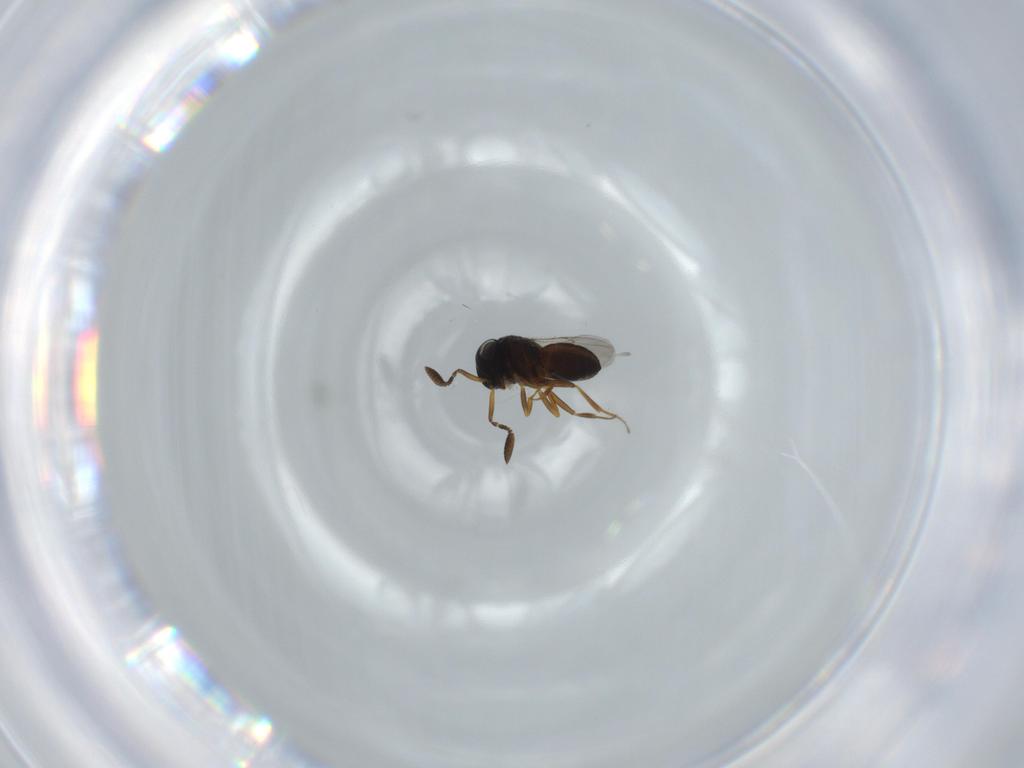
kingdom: Animalia
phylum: Arthropoda
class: Insecta
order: Hymenoptera
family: Scelionidae
